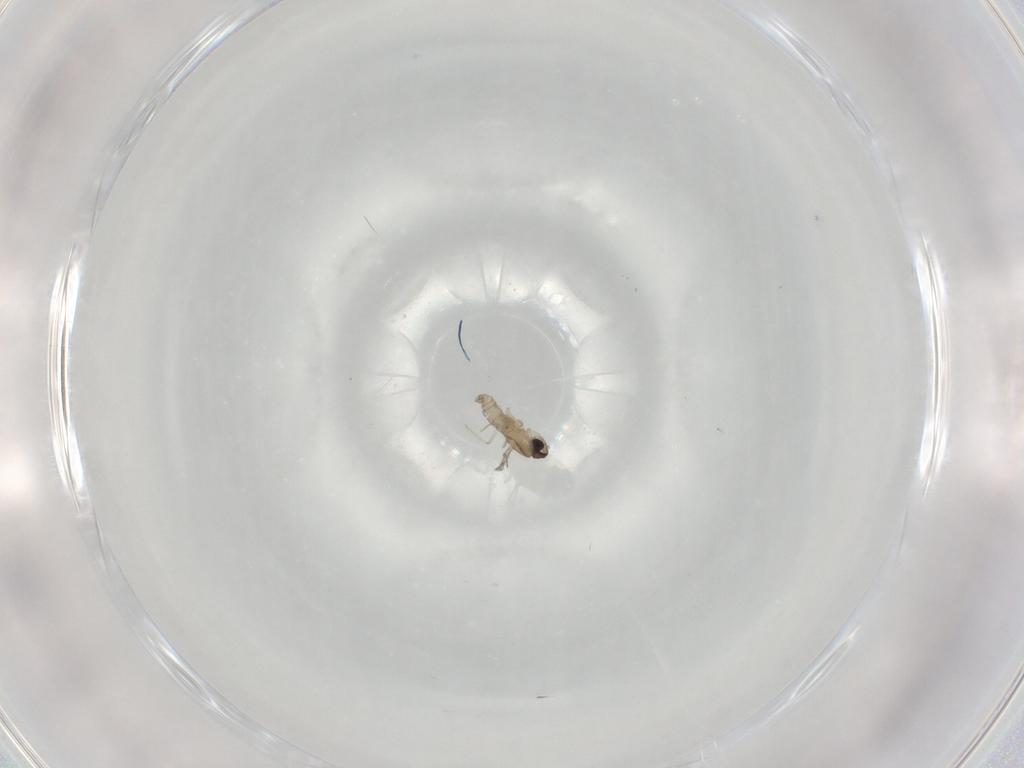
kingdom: Animalia
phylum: Arthropoda
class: Insecta
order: Diptera
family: Cecidomyiidae
